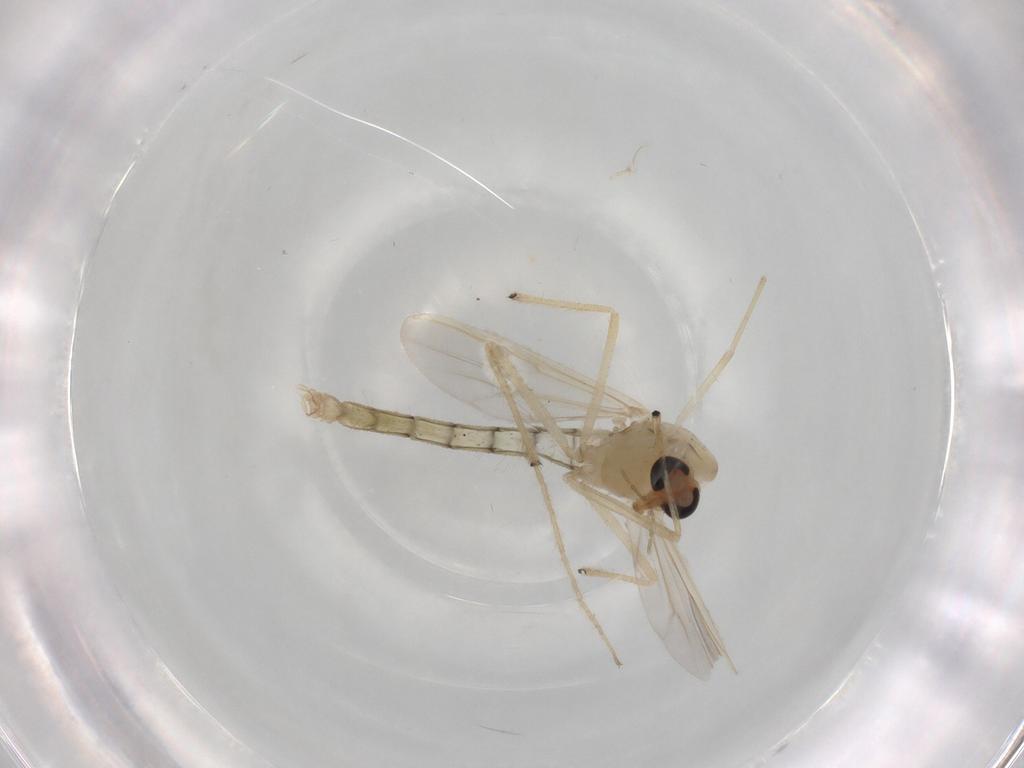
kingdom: Animalia
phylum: Arthropoda
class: Insecta
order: Diptera
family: Chironomidae
